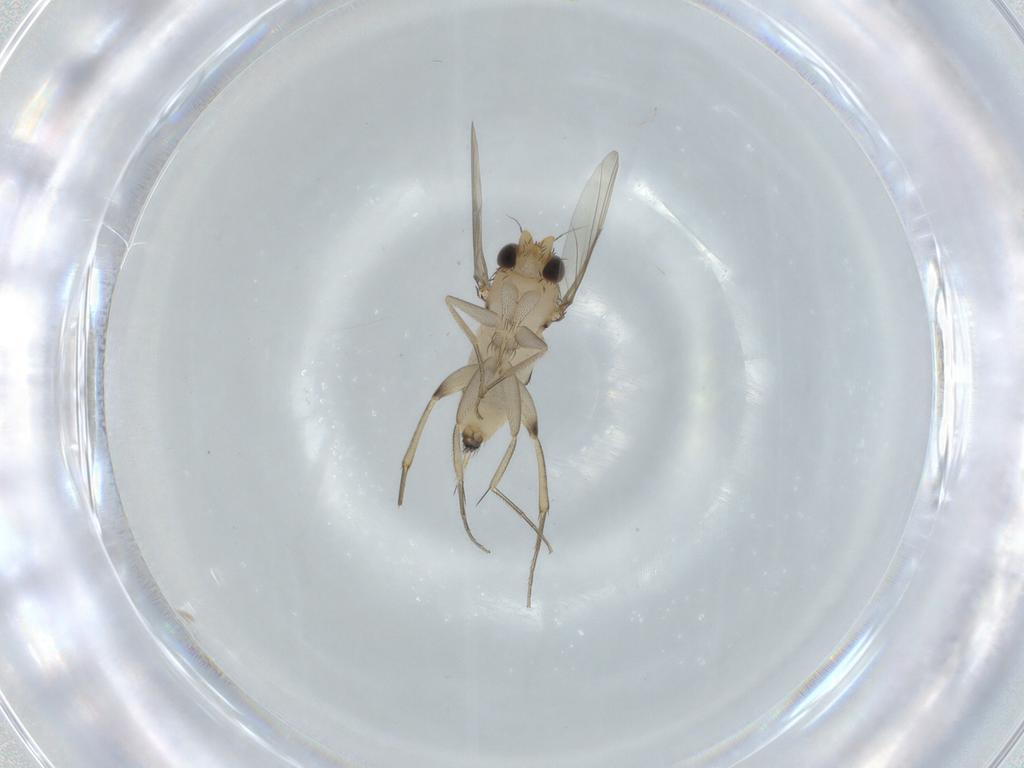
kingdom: Animalia
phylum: Arthropoda
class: Insecta
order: Diptera
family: Phoridae
